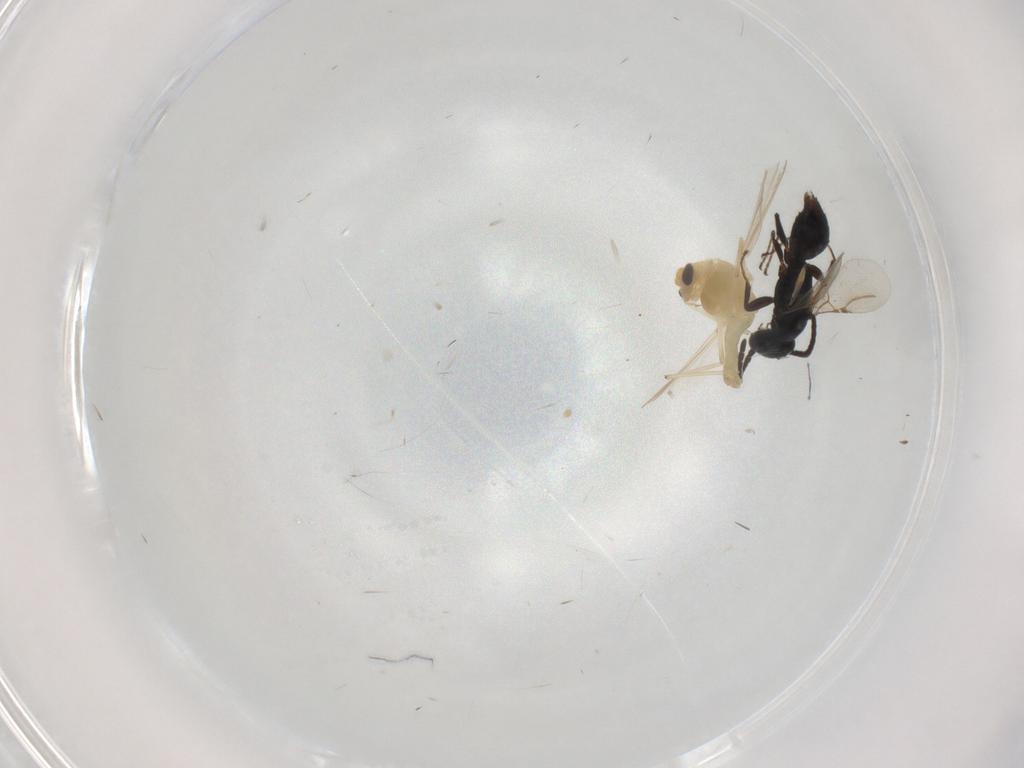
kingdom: Animalia
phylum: Arthropoda
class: Insecta
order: Diptera
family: Chironomidae
